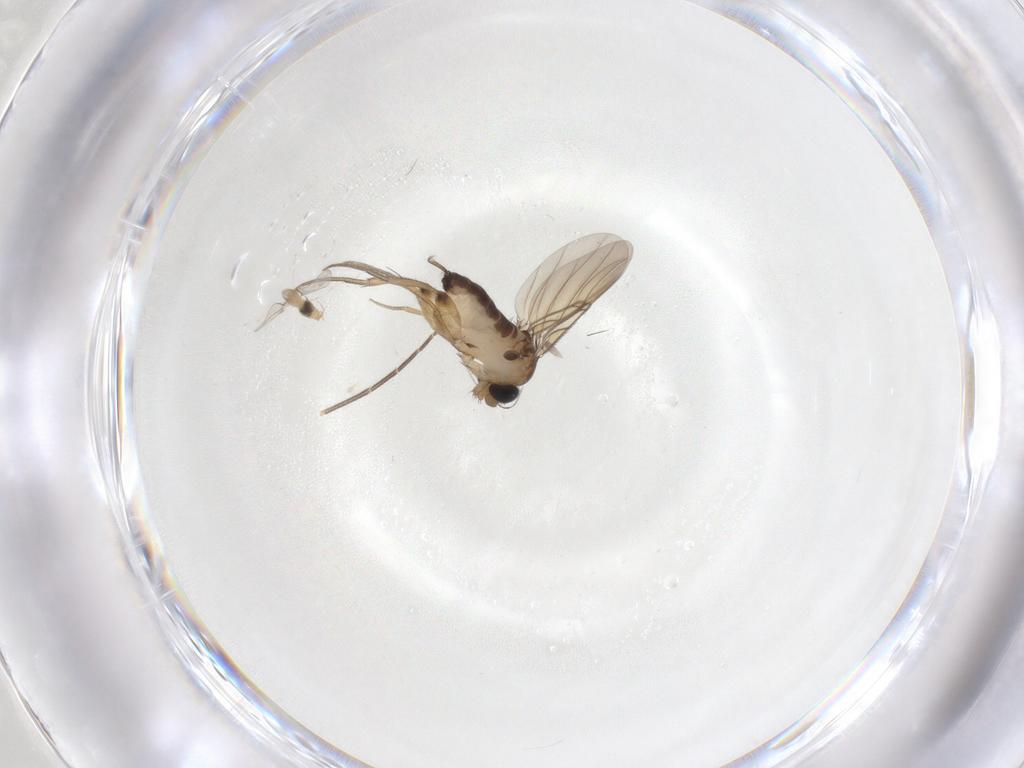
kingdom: Animalia
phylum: Arthropoda
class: Insecta
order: Diptera
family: Cecidomyiidae
